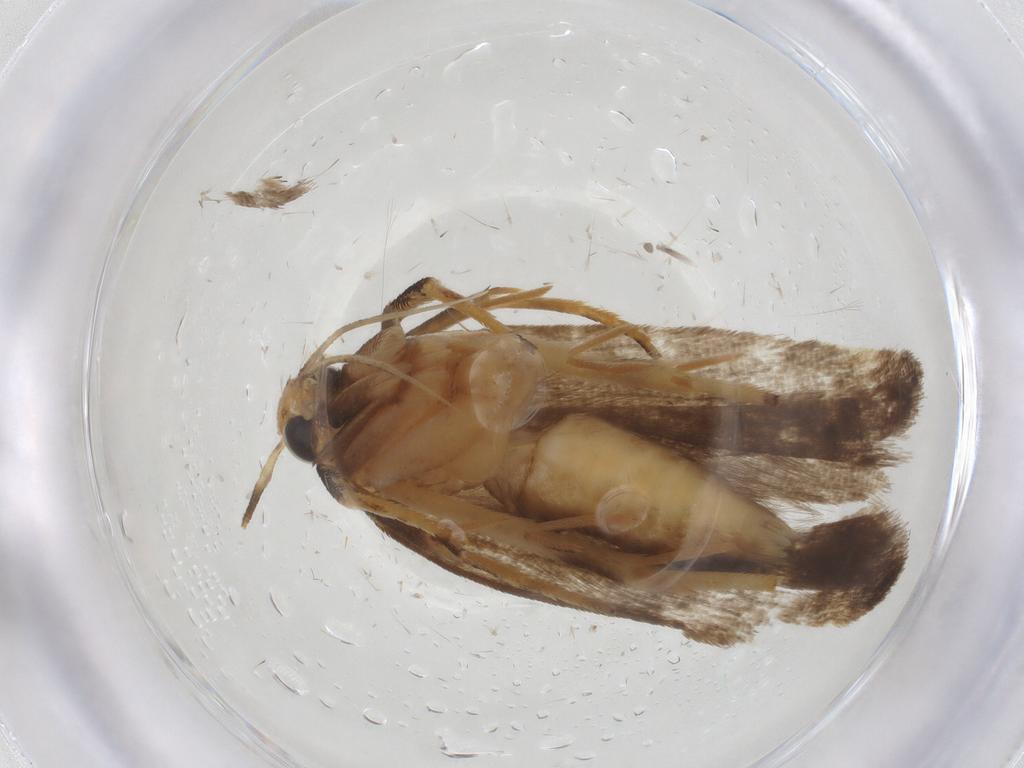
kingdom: Animalia
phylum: Arthropoda
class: Insecta
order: Lepidoptera
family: Gelechiidae
